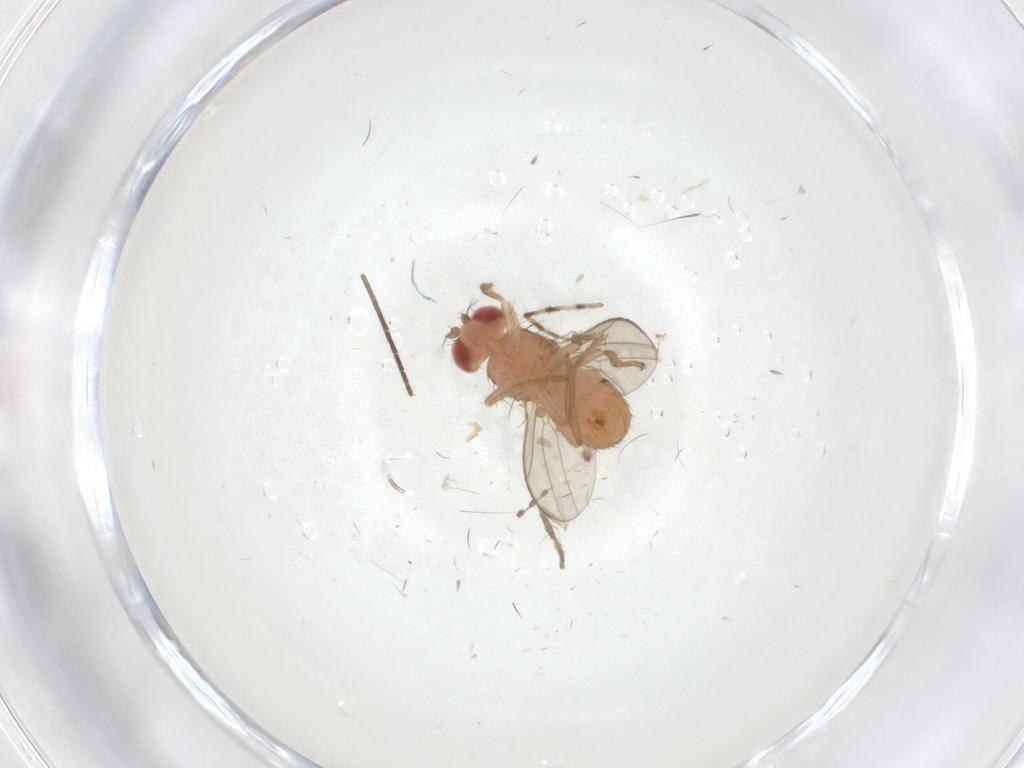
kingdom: Animalia
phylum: Arthropoda
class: Insecta
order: Diptera
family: Drosophilidae
